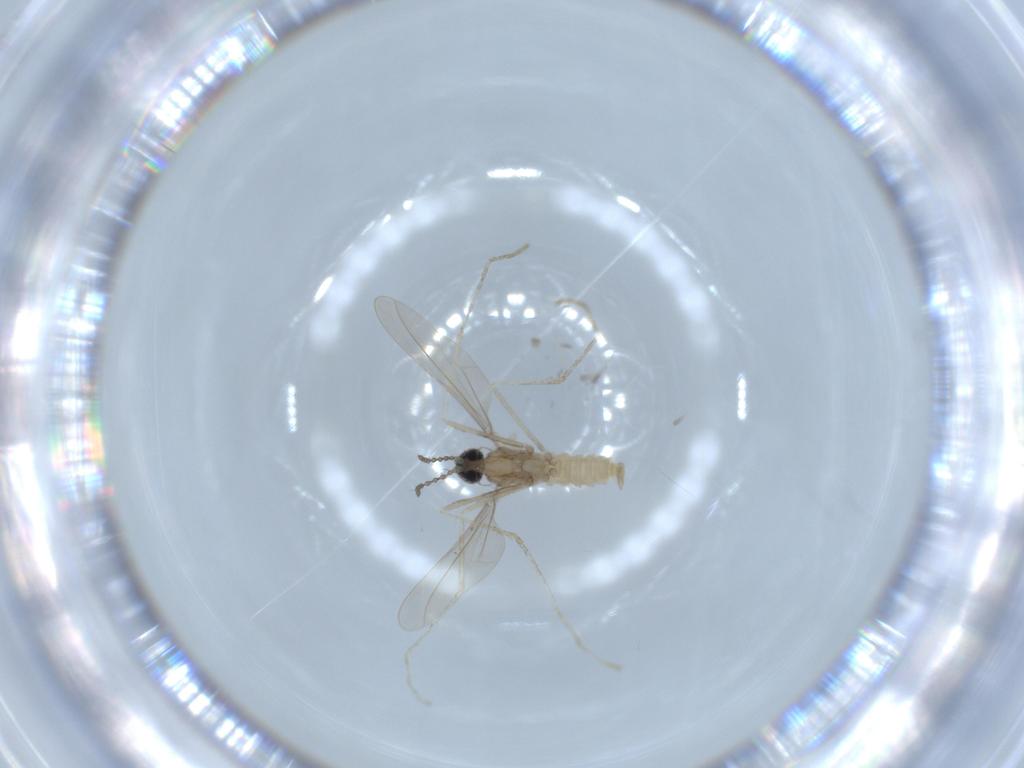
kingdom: Animalia
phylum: Arthropoda
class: Insecta
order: Diptera
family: Cecidomyiidae
